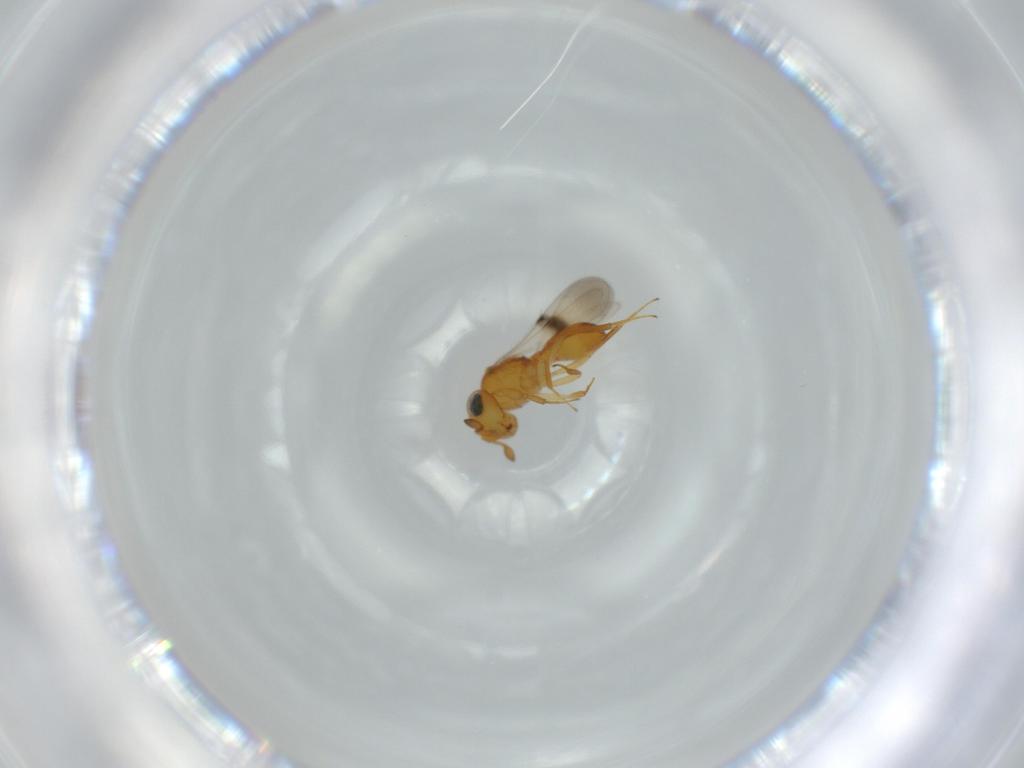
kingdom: Animalia
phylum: Arthropoda
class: Insecta
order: Hymenoptera
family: Scelionidae
